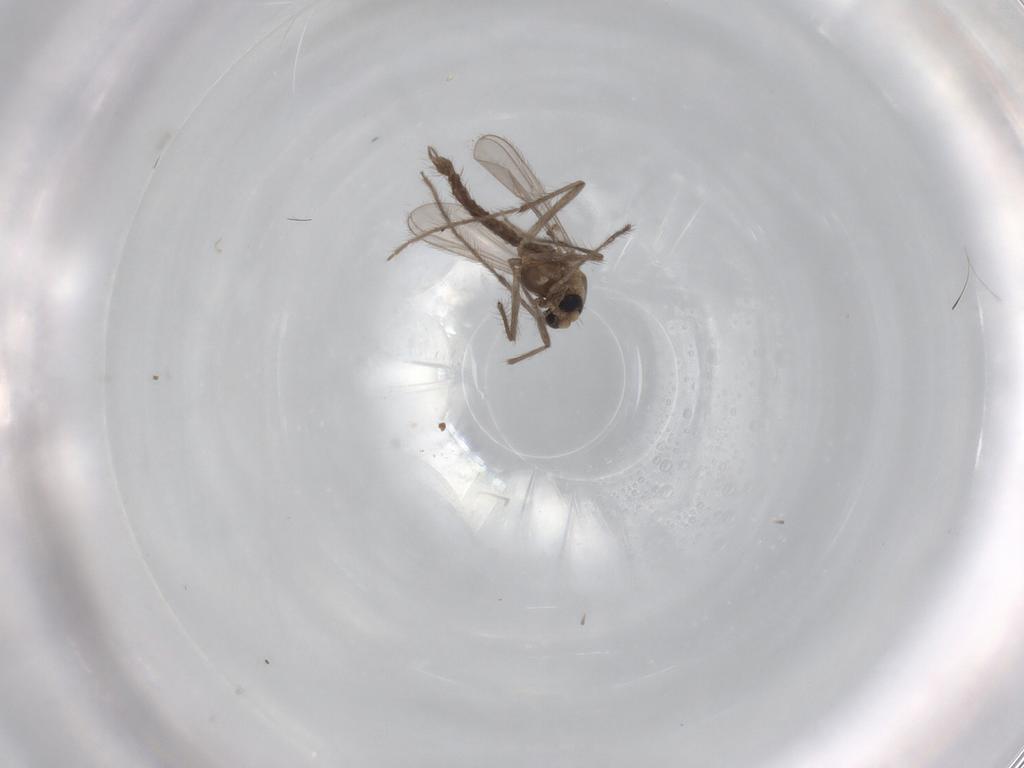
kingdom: Animalia
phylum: Arthropoda
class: Insecta
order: Diptera
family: Chironomidae
